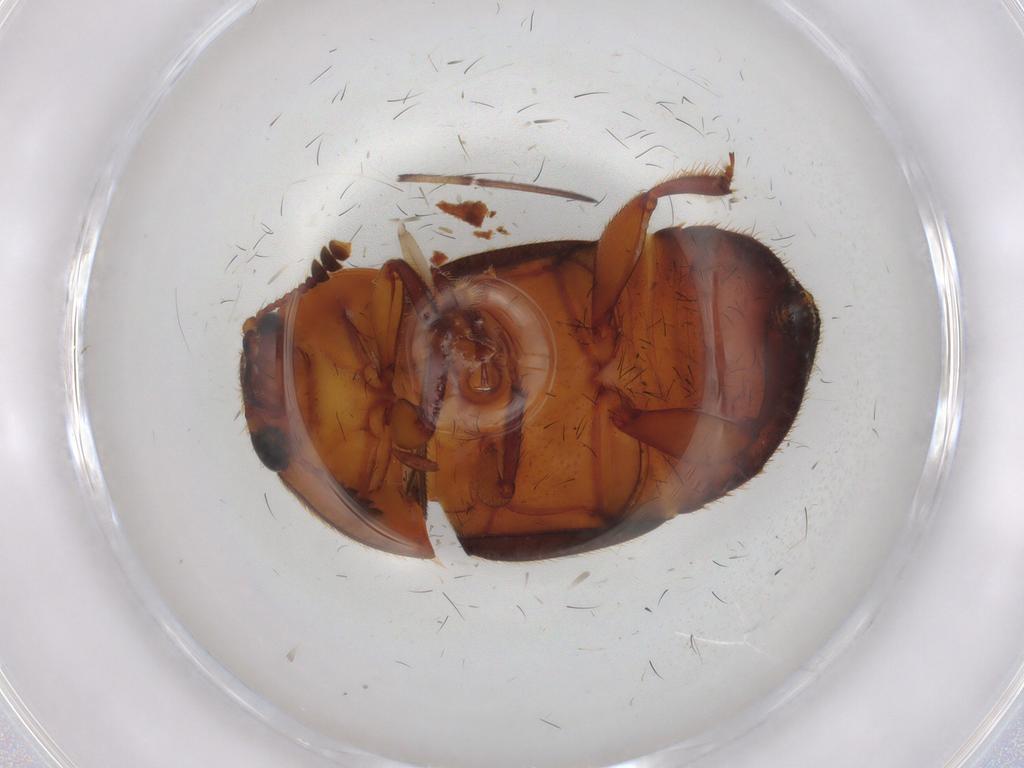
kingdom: Animalia
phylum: Arthropoda
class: Insecta
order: Coleoptera
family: Nitidulidae
